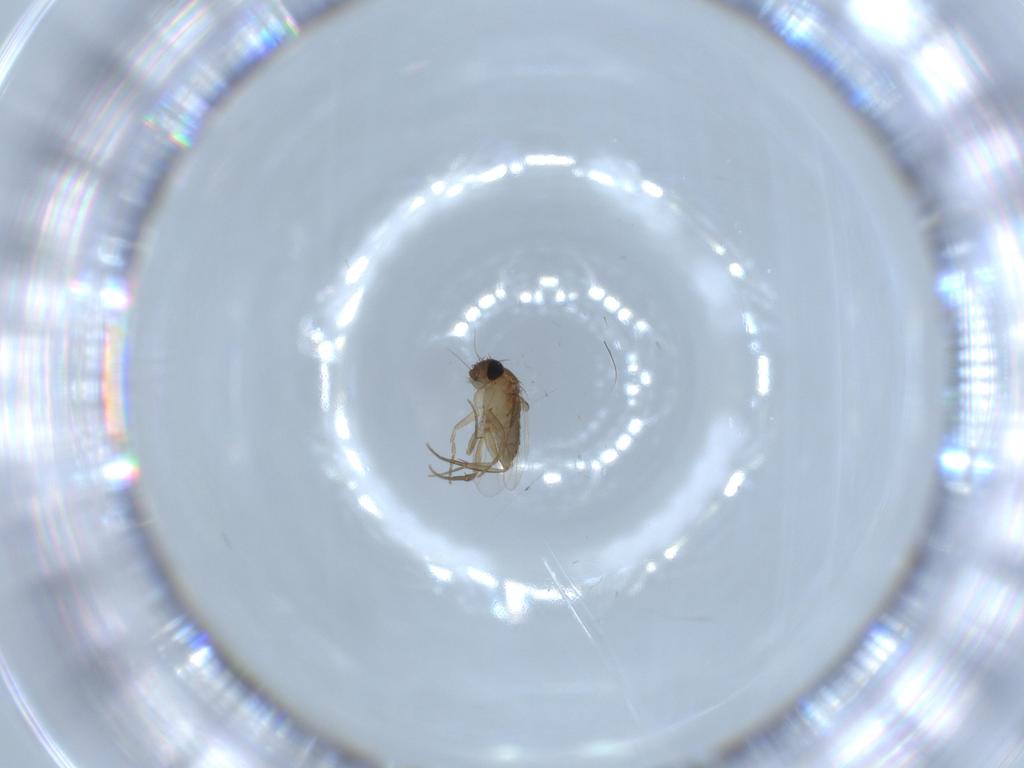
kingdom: Animalia
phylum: Arthropoda
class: Insecta
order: Diptera
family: Phoridae
